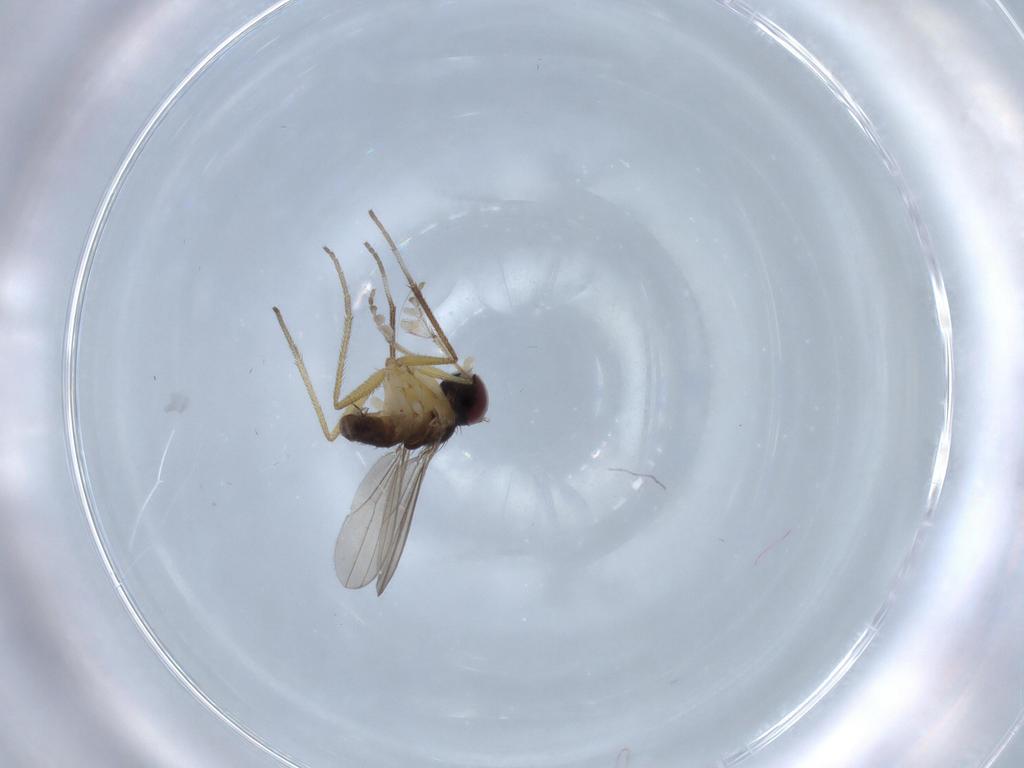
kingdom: Animalia
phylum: Arthropoda
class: Insecta
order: Diptera
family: Dolichopodidae
